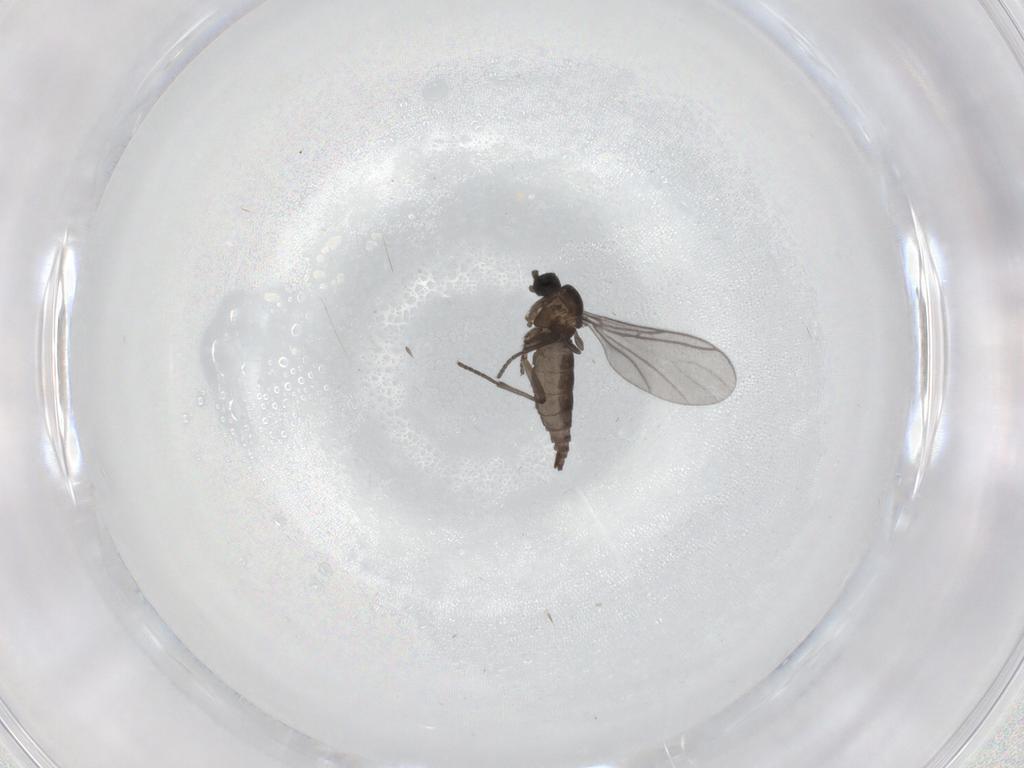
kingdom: Animalia
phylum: Arthropoda
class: Insecta
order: Diptera
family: Sciaridae
